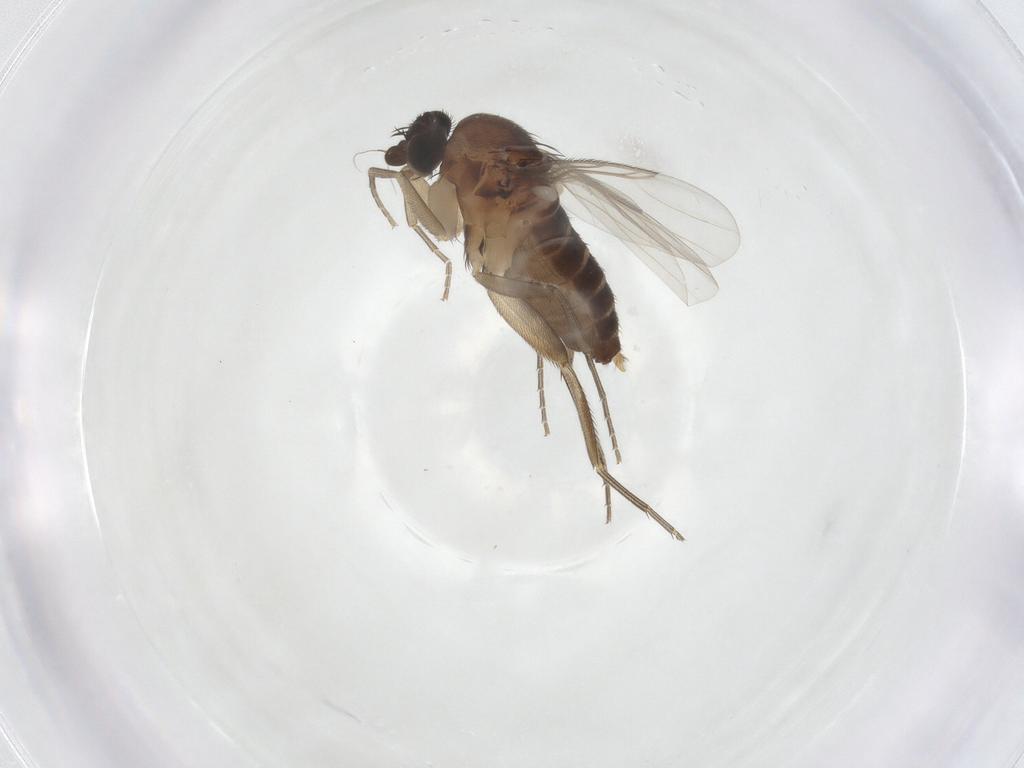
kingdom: Animalia
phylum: Arthropoda
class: Insecta
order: Diptera
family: Phoridae
